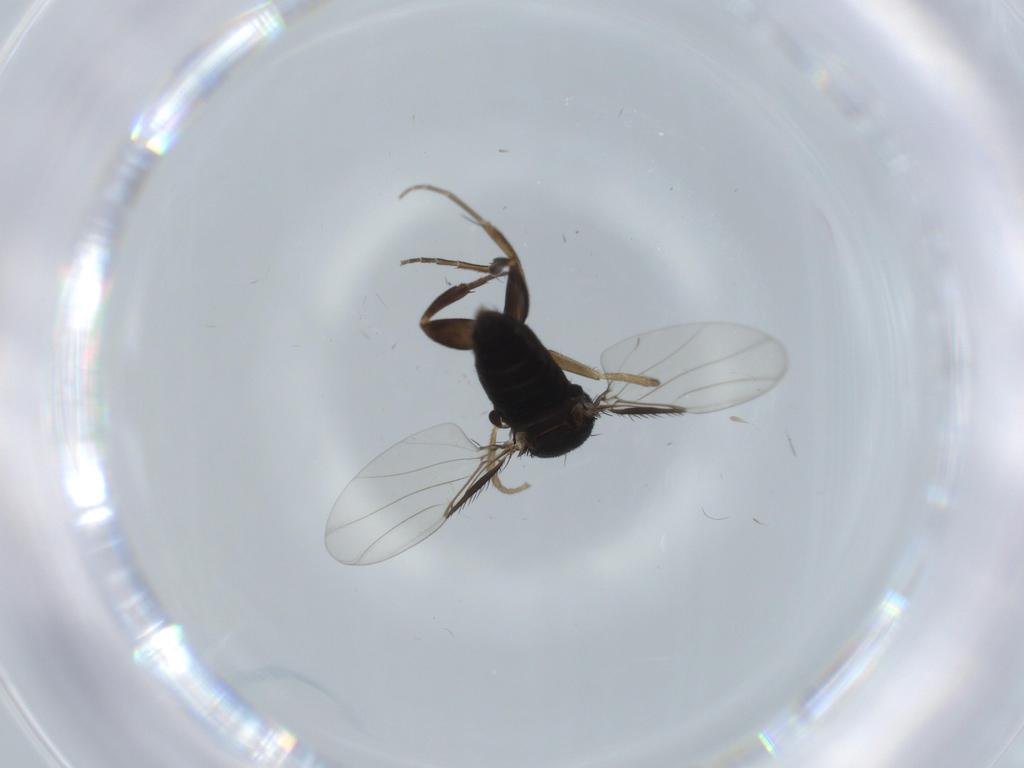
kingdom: Animalia
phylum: Arthropoda
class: Insecta
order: Diptera
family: Phoridae
